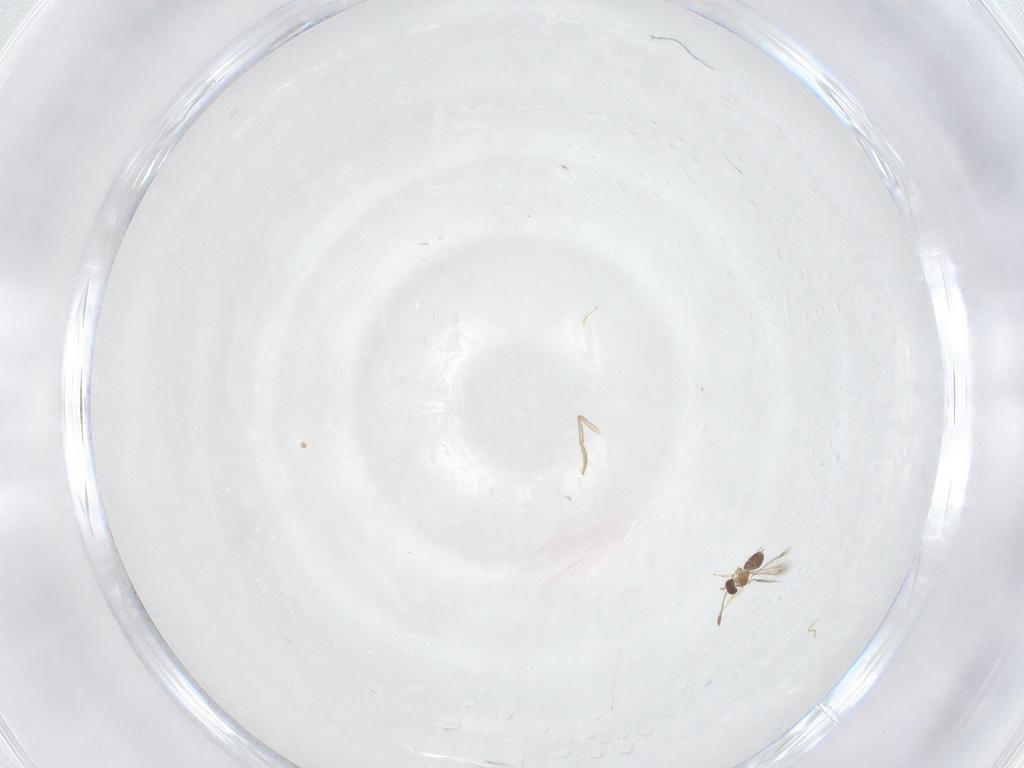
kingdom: Animalia
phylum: Arthropoda
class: Insecta
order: Diptera
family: Cecidomyiidae
